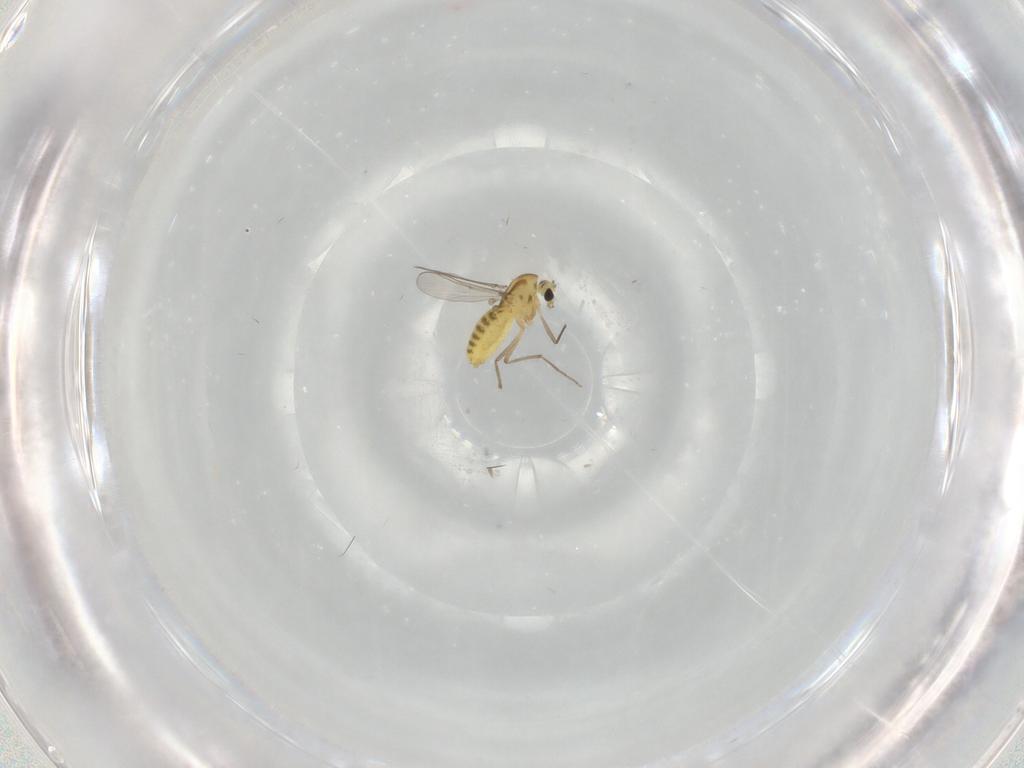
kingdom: Animalia
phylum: Arthropoda
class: Insecta
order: Diptera
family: Chironomidae
